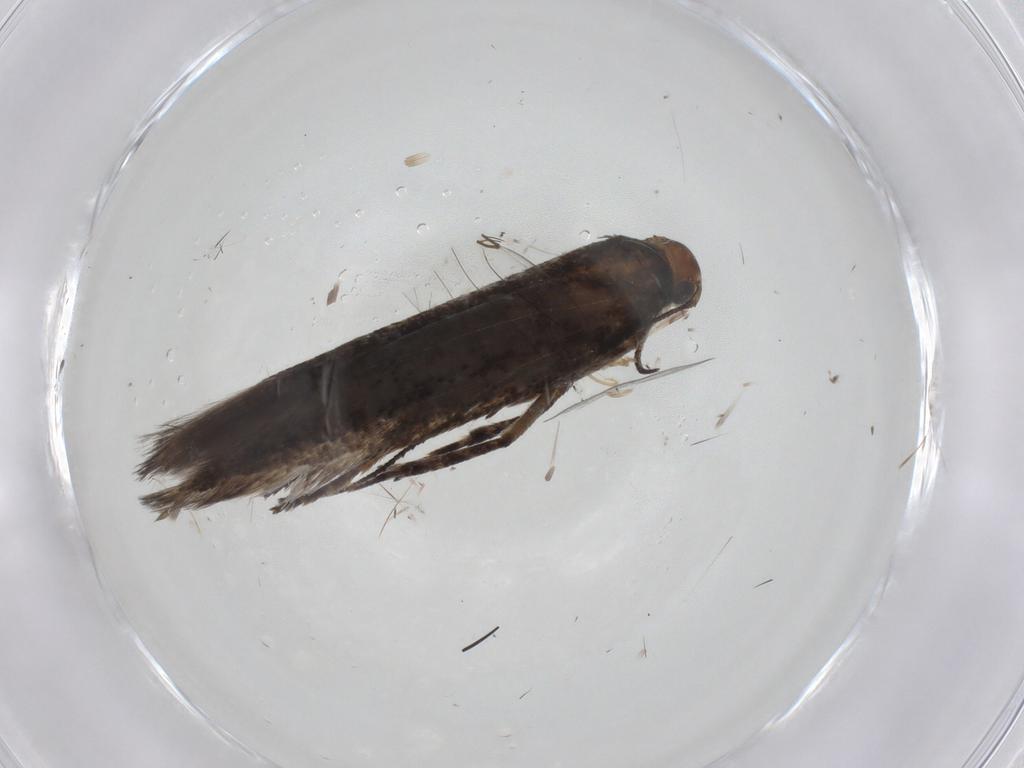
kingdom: Animalia
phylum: Arthropoda
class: Insecta
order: Lepidoptera
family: Gelechiidae
